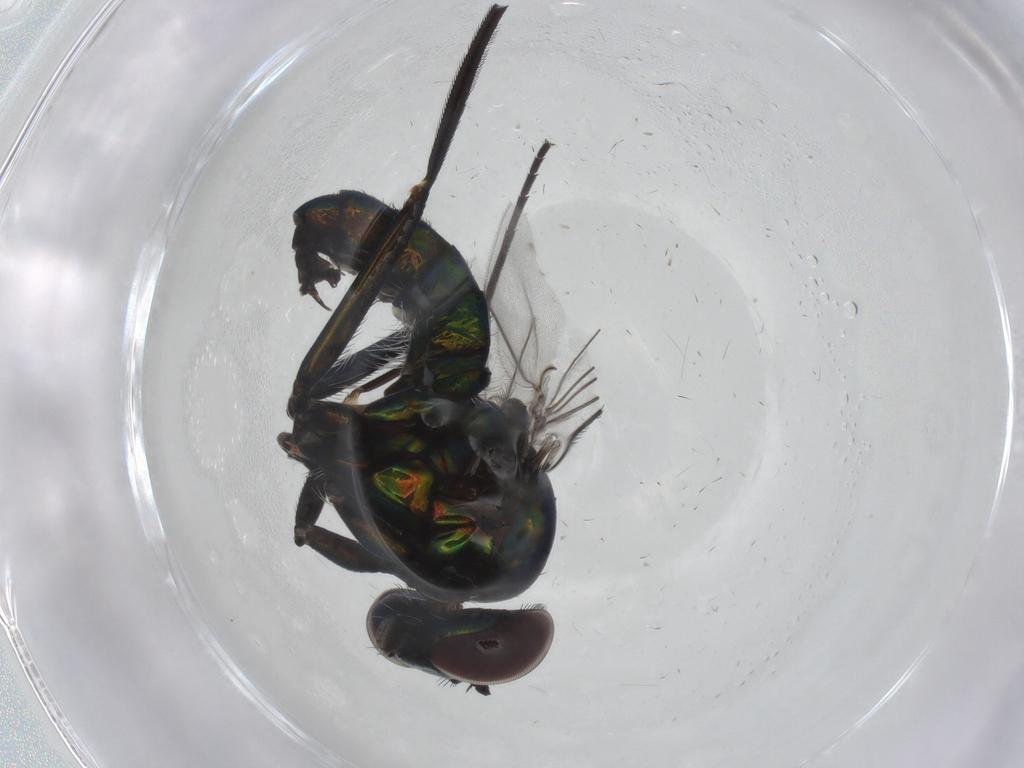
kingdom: Animalia
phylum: Arthropoda
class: Insecta
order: Diptera
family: Dolichopodidae
